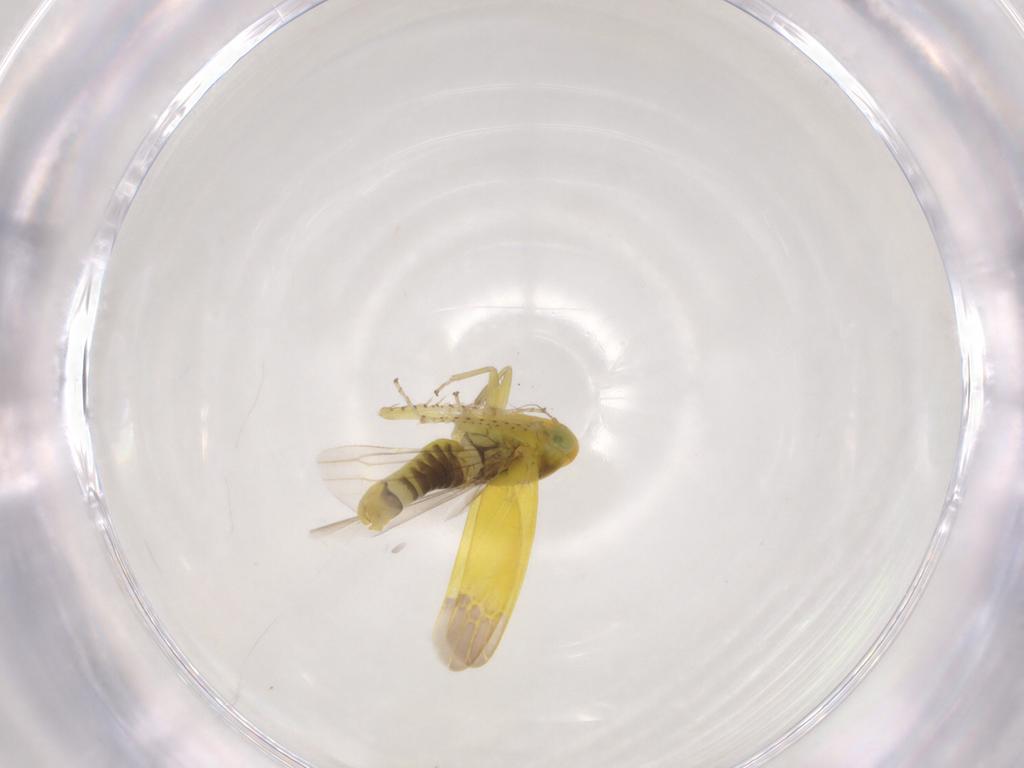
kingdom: Animalia
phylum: Arthropoda
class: Insecta
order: Hemiptera
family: Cicadellidae
